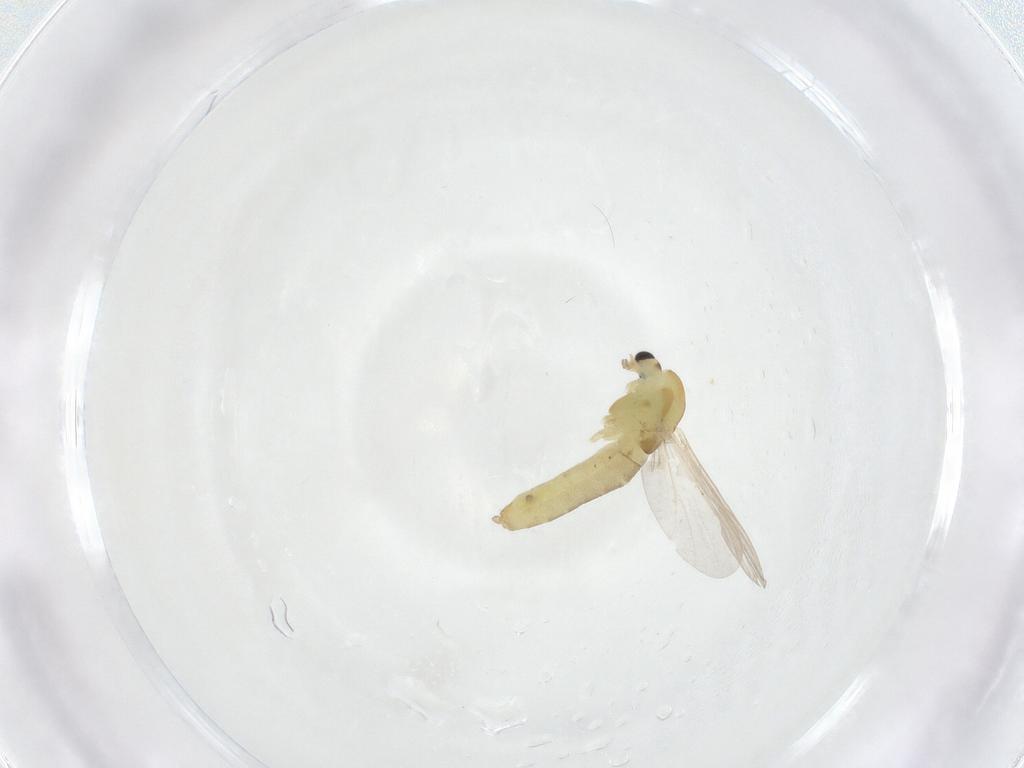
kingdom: Animalia
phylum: Arthropoda
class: Insecta
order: Diptera
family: Chironomidae
